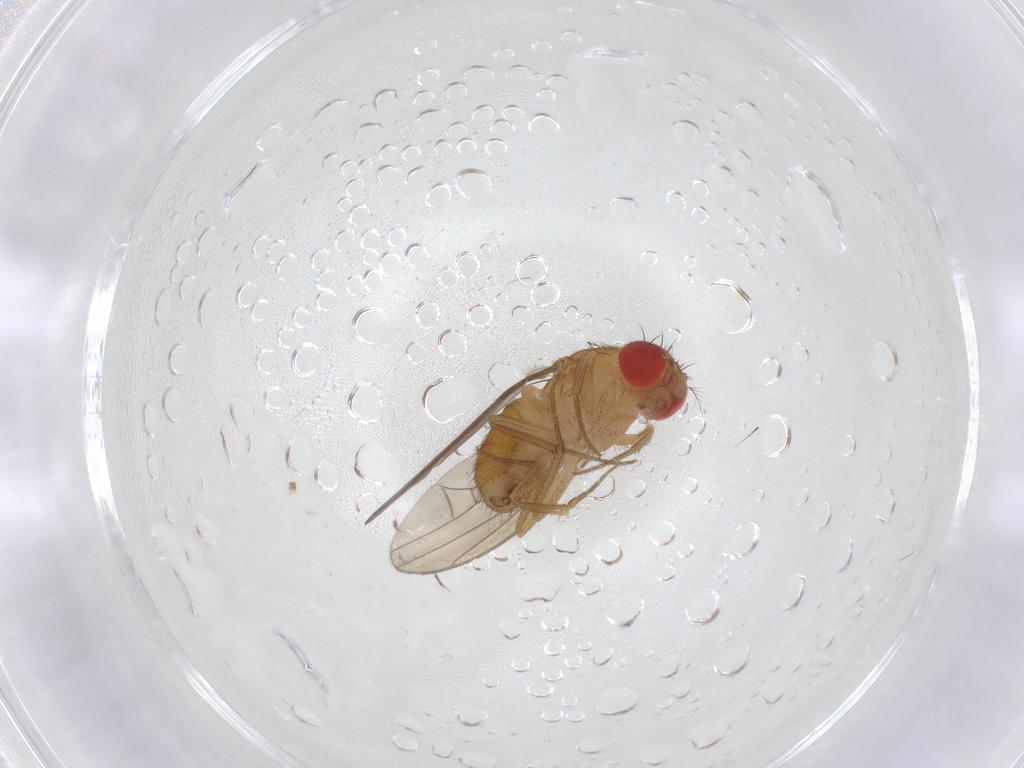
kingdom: Animalia
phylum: Arthropoda
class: Insecta
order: Diptera
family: Drosophilidae
